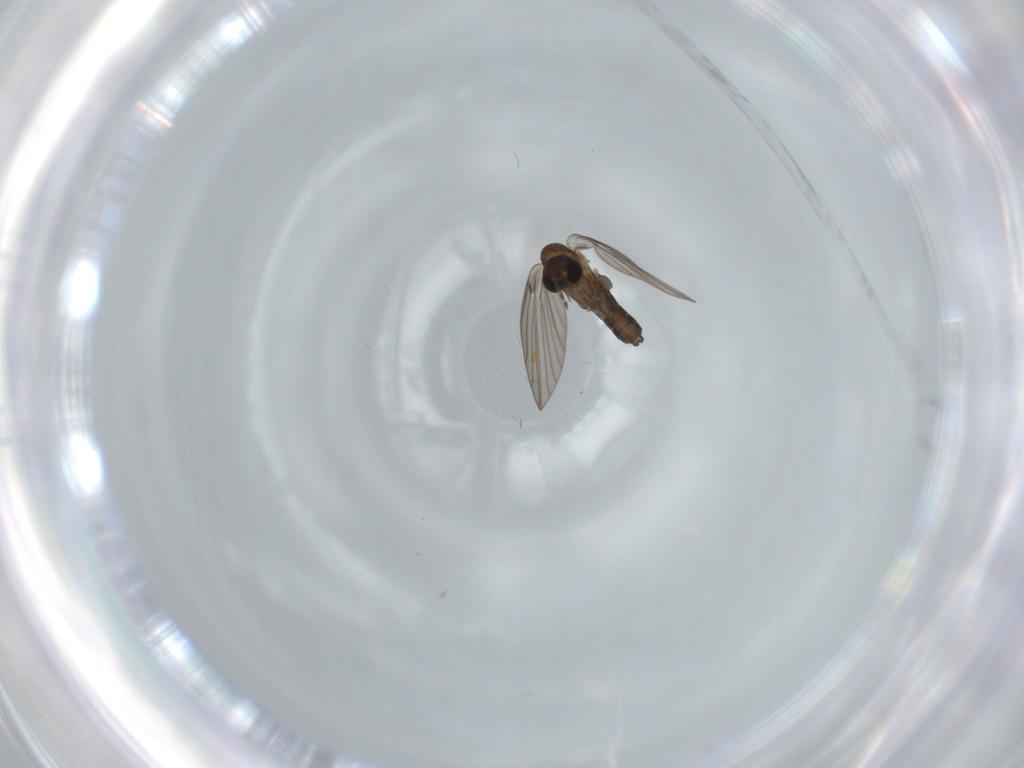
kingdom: Animalia
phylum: Arthropoda
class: Insecta
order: Diptera
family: Psychodidae
